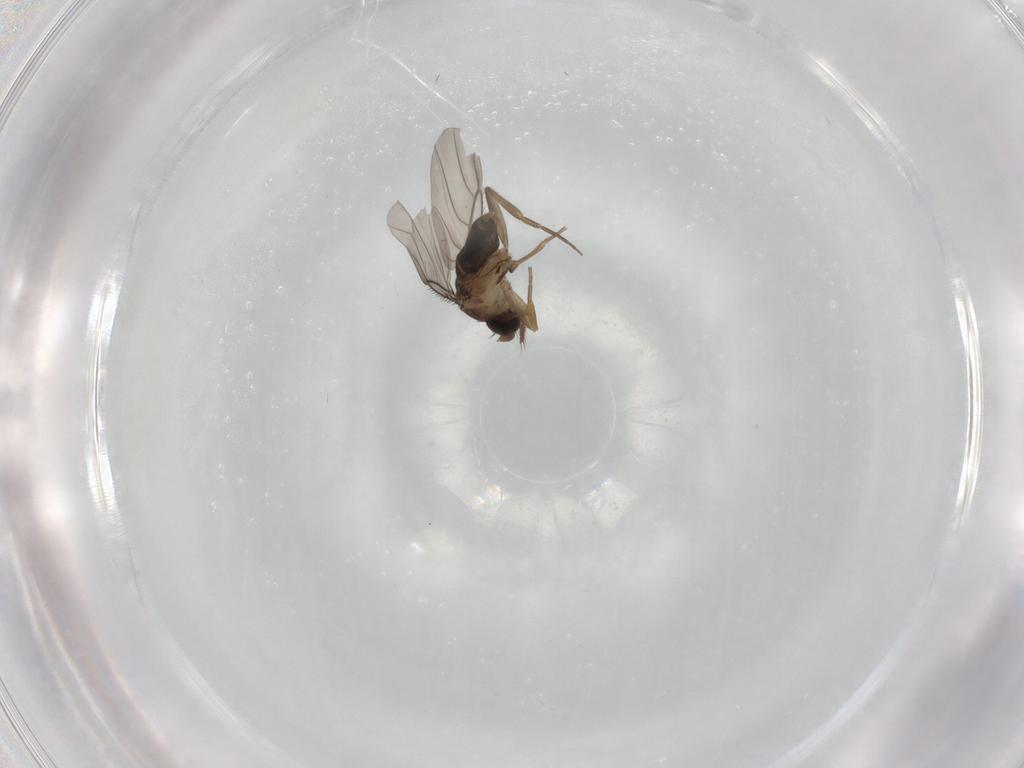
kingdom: Animalia
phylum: Arthropoda
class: Insecta
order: Diptera
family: Phoridae
